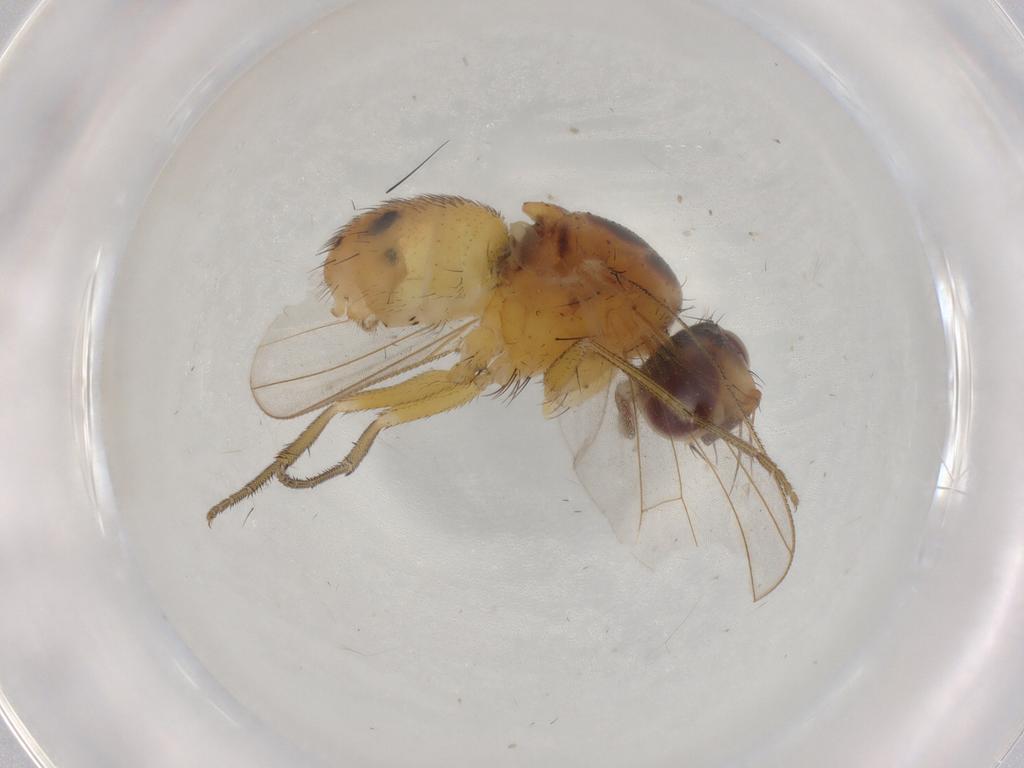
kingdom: Animalia
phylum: Arthropoda
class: Insecta
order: Diptera
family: Muscidae
